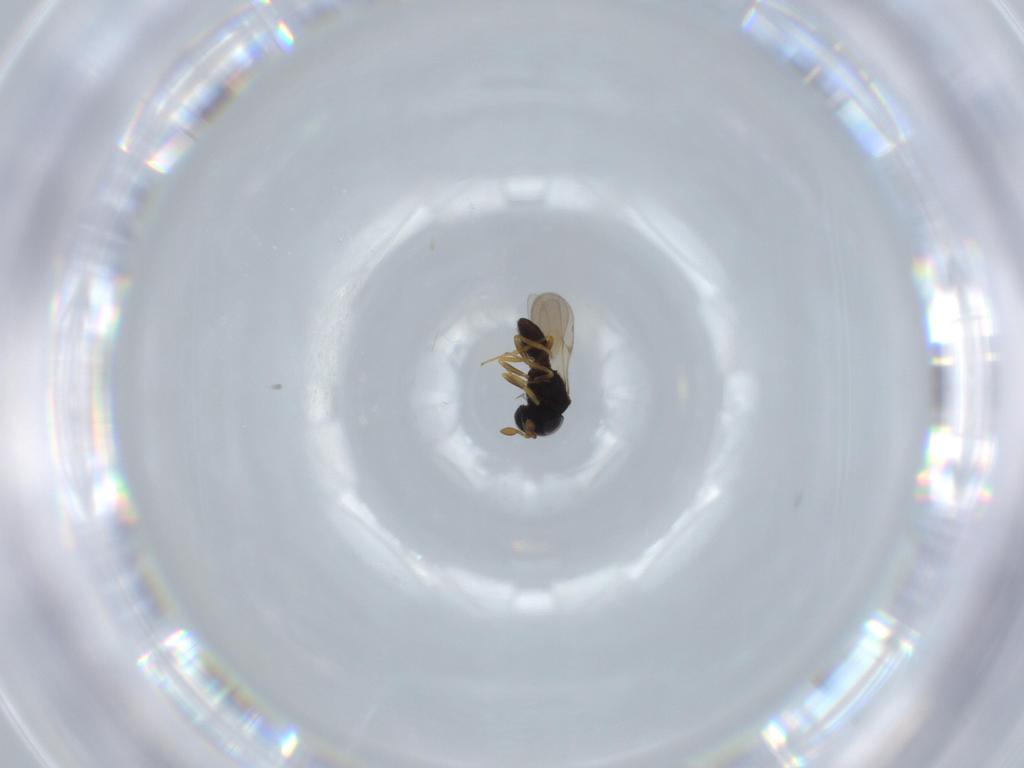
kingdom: Animalia
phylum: Arthropoda
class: Insecta
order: Hymenoptera
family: Scelionidae
